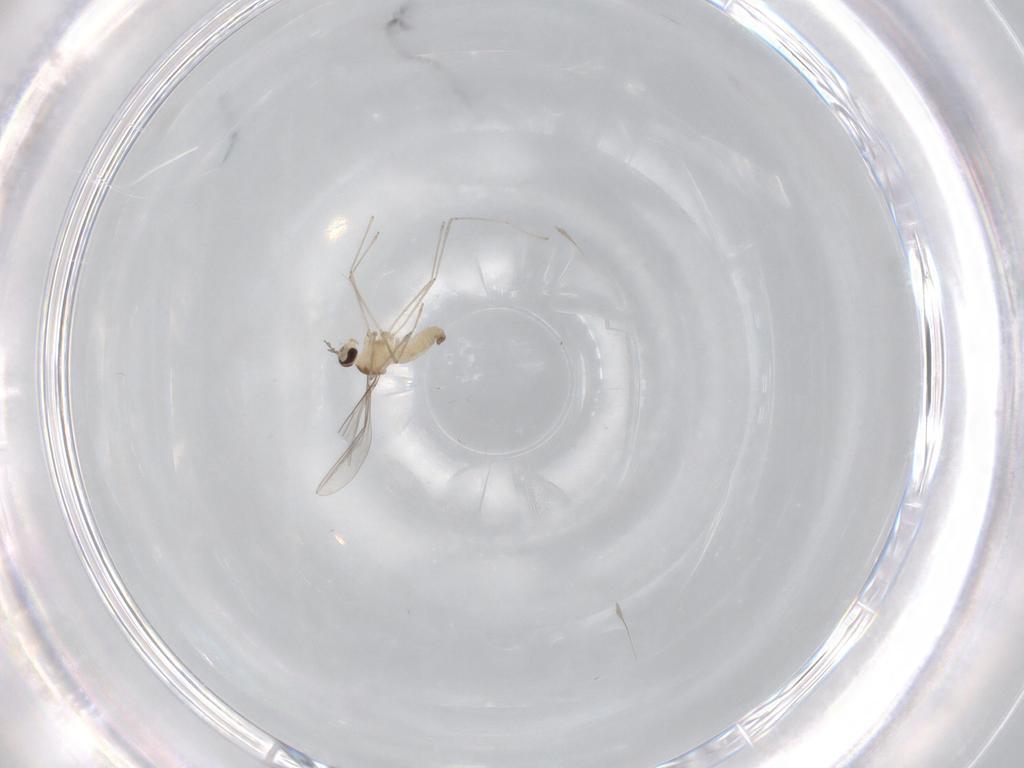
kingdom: Animalia
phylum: Arthropoda
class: Insecta
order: Diptera
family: Cecidomyiidae
